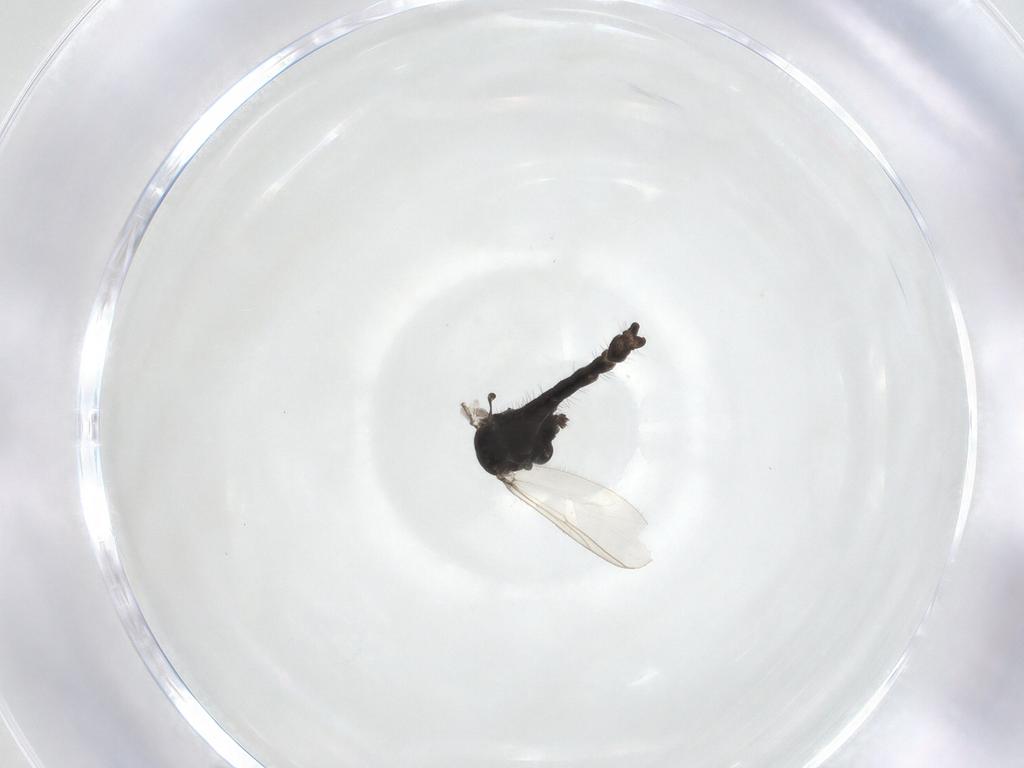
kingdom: Animalia
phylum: Arthropoda
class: Insecta
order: Diptera
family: Chironomidae
